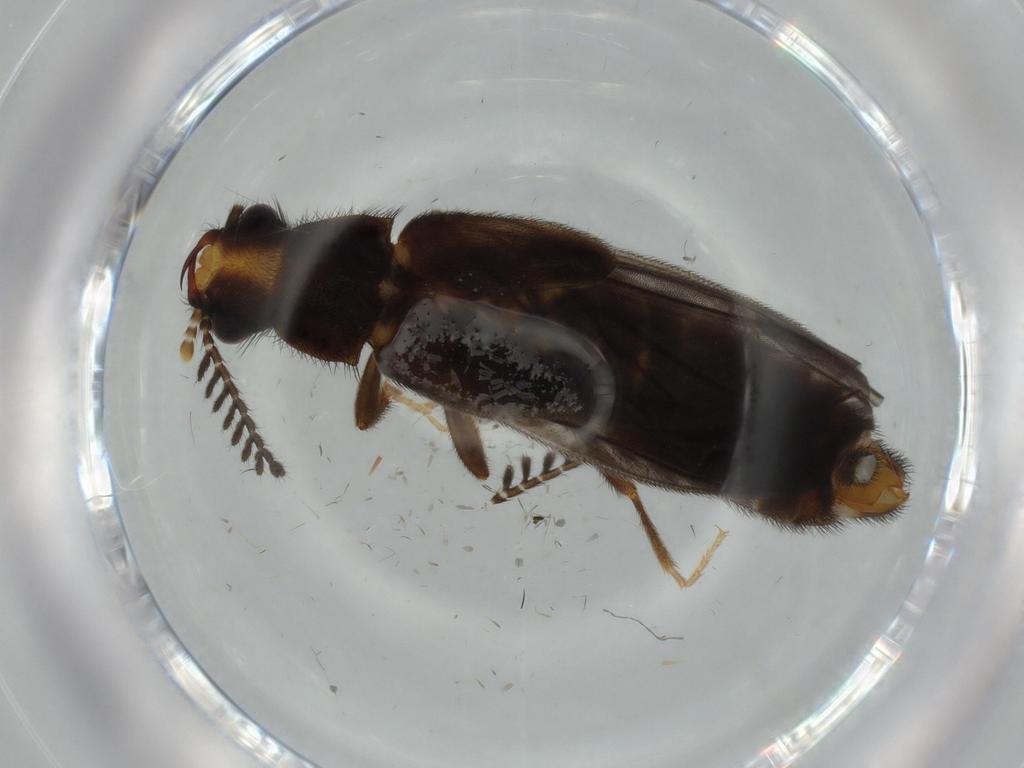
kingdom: Animalia
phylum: Arthropoda
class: Insecta
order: Coleoptera
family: Phengodidae
